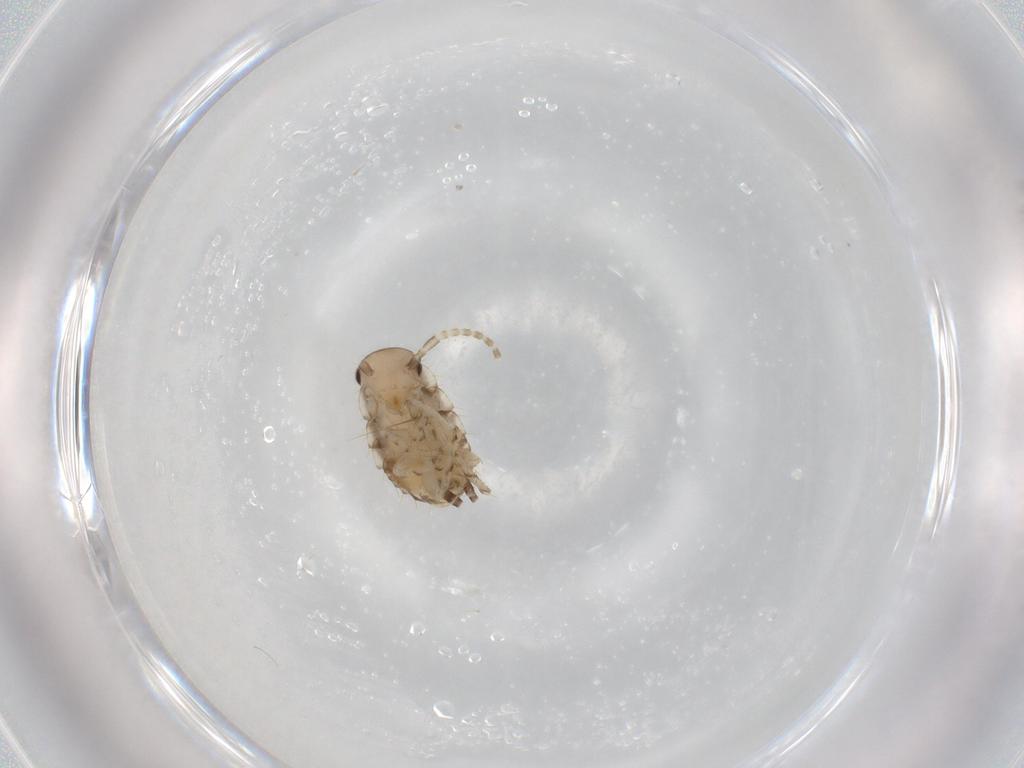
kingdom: Animalia
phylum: Arthropoda
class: Insecta
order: Blattodea
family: Ectobiidae
